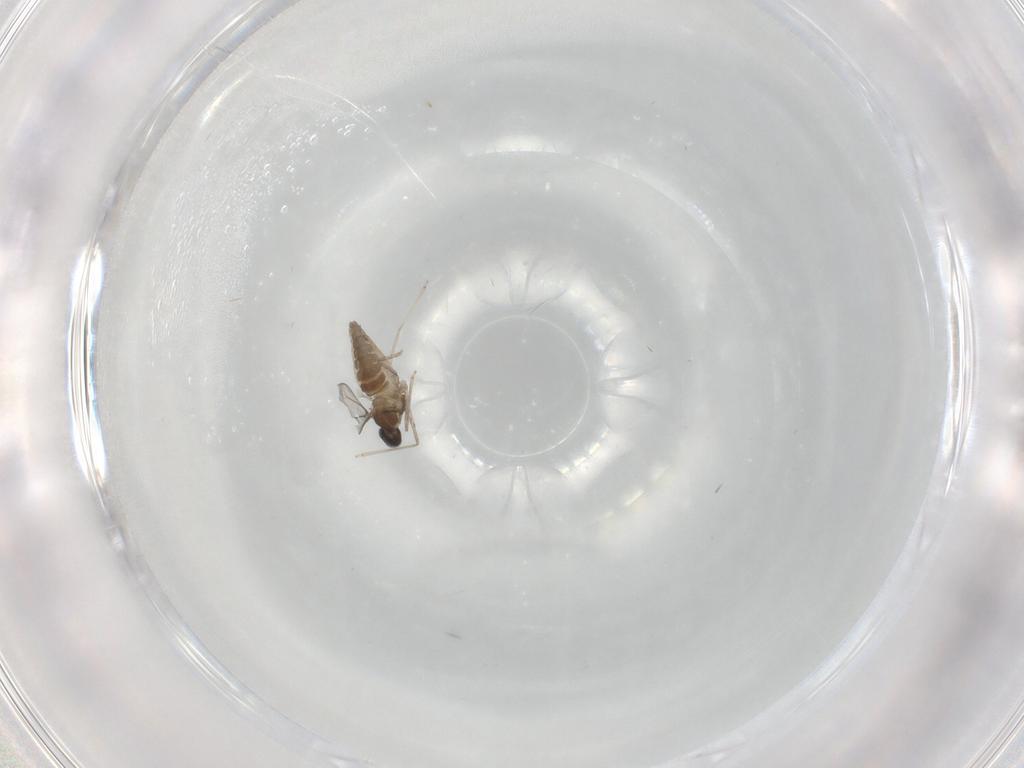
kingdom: Animalia
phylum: Arthropoda
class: Insecta
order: Diptera
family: Cecidomyiidae
